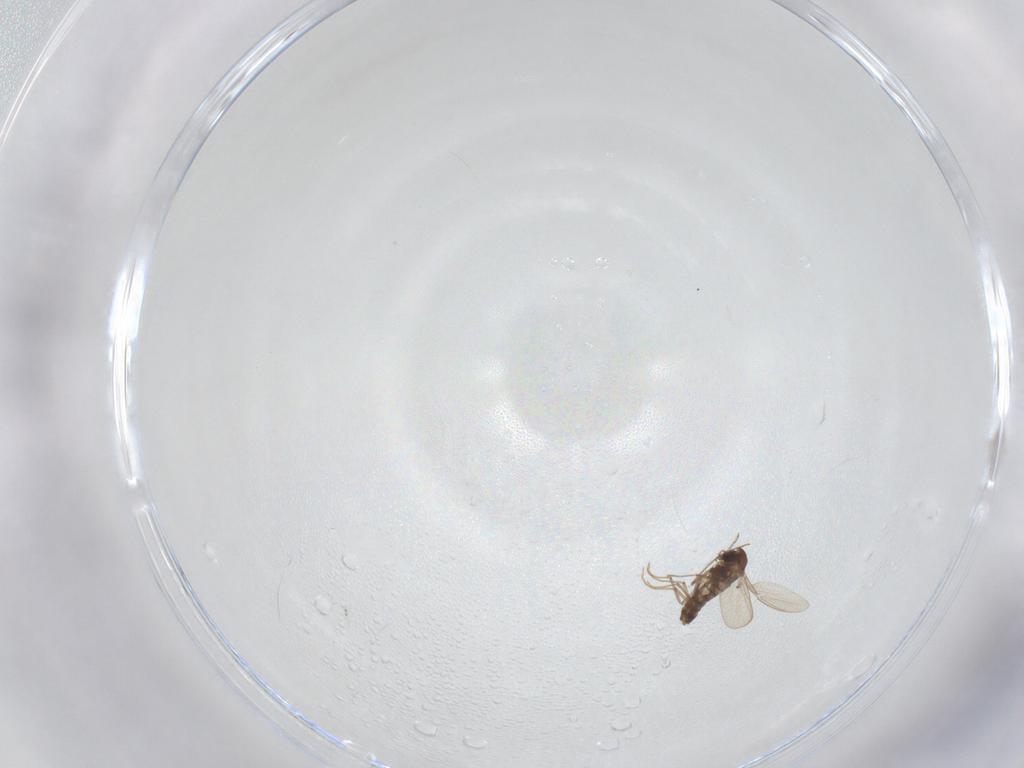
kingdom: Animalia
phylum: Arthropoda
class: Insecta
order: Diptera
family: Chironomidae
